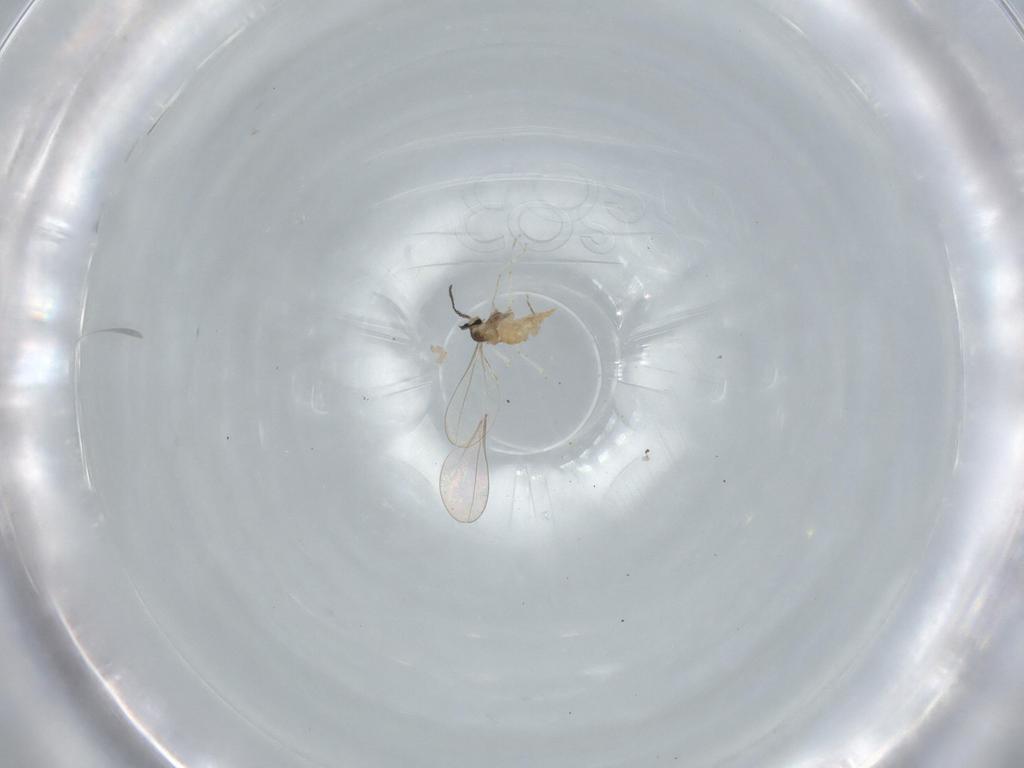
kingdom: Animalia
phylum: Arthropoda
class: Insecta
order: Diptera
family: Cecidomyiidae
